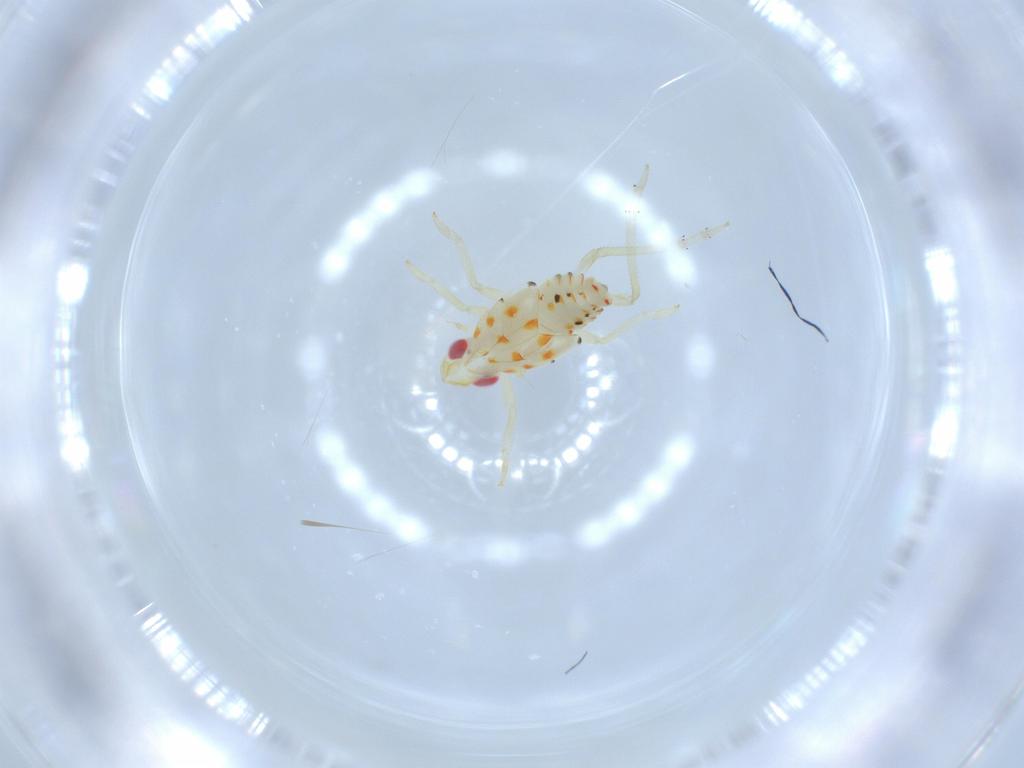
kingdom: Animalia
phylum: Arthropoda
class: Insecta
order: Hemiptera
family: Tropiduchidae
